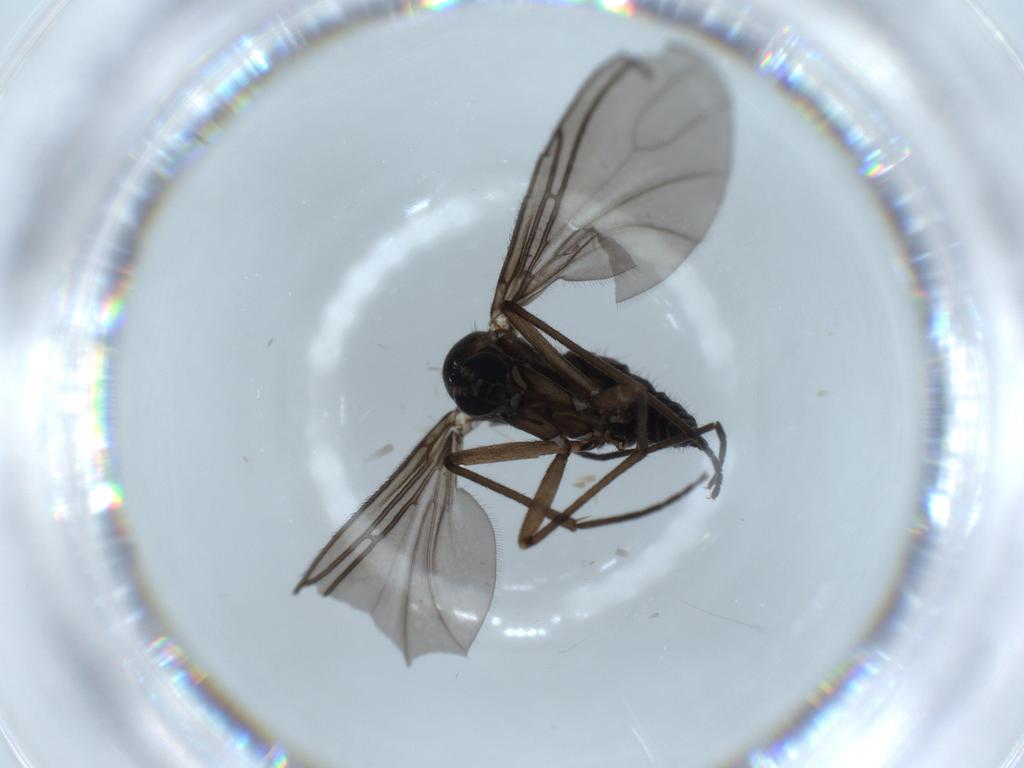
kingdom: Animalia
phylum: Arthropoda
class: Insecta
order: Diptera
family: Sciaridae
